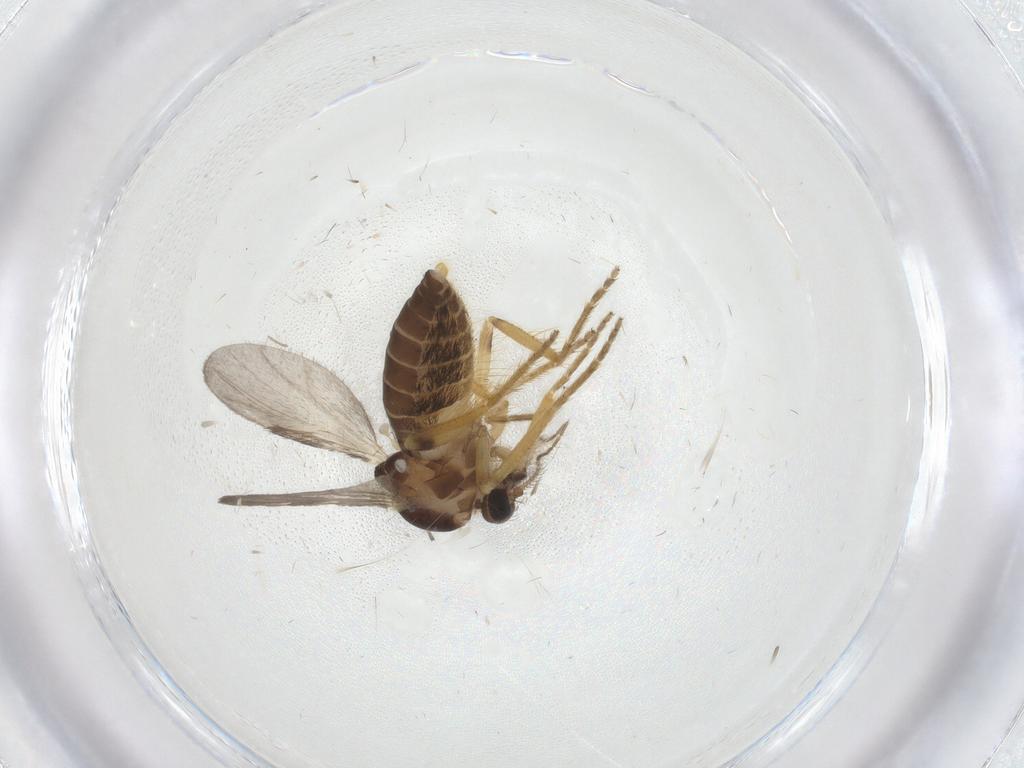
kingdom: Animalia
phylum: Arthropoda
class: Insecta
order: Diptera
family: Ceratopogonidae
